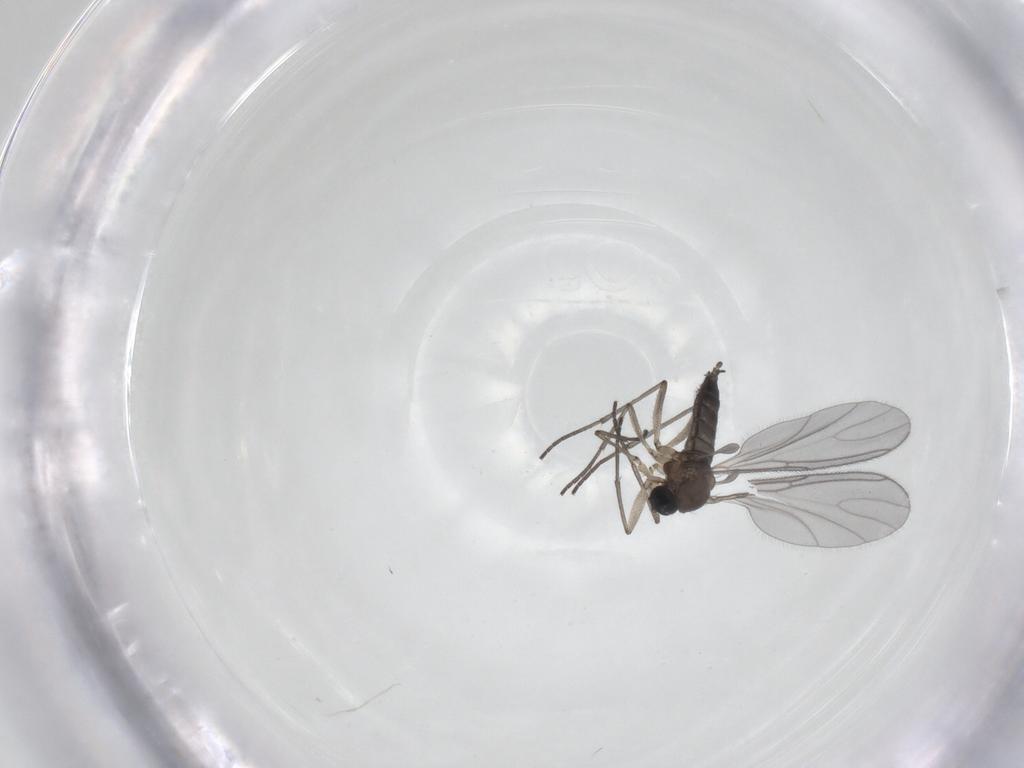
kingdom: Animalia
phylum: Arthropoda
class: Insecta
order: Diptera
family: Sciaridae
